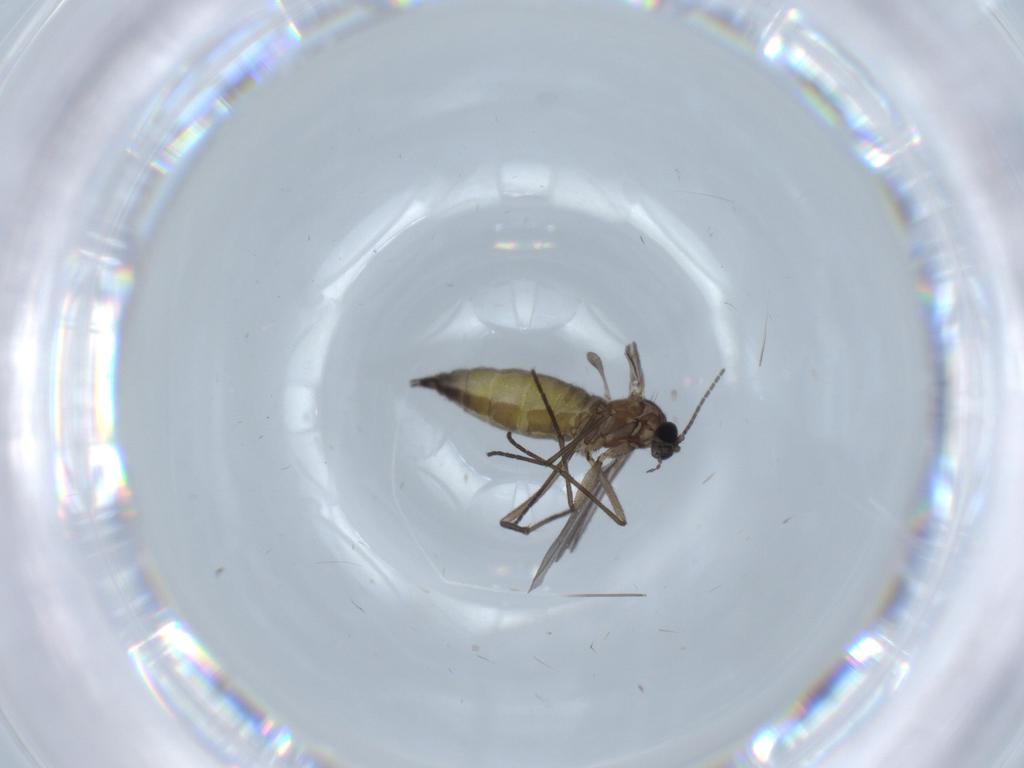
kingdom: Animalia
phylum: Arthropoda
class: Insecta
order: Diptera
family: Sciaridae
